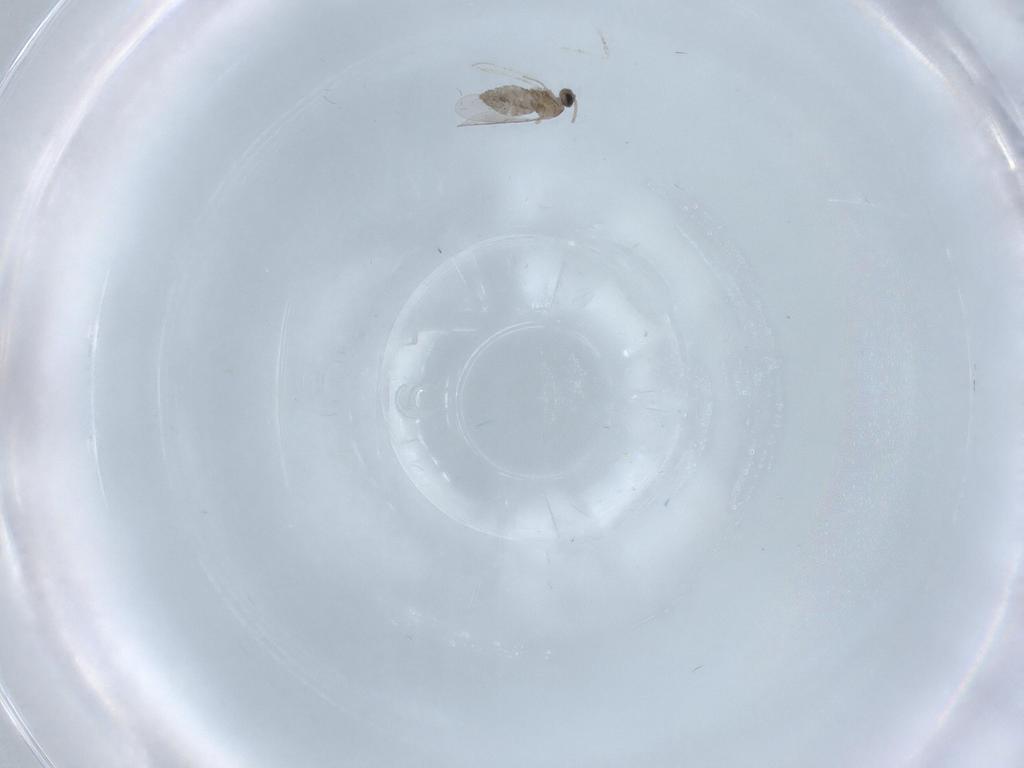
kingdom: Animalia
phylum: Arthropoda
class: Insecta
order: Diptera
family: Cecidomyiidae
